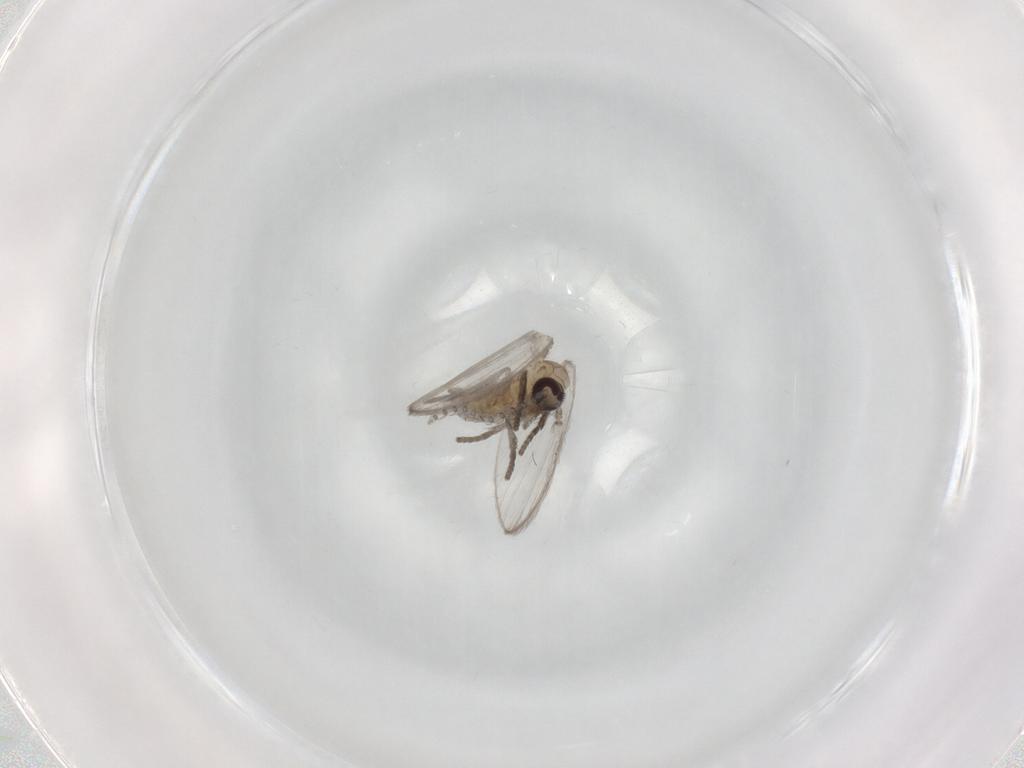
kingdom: Animalia
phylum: Arthropoda
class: Insecta
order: Diptera
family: Psychodidae
